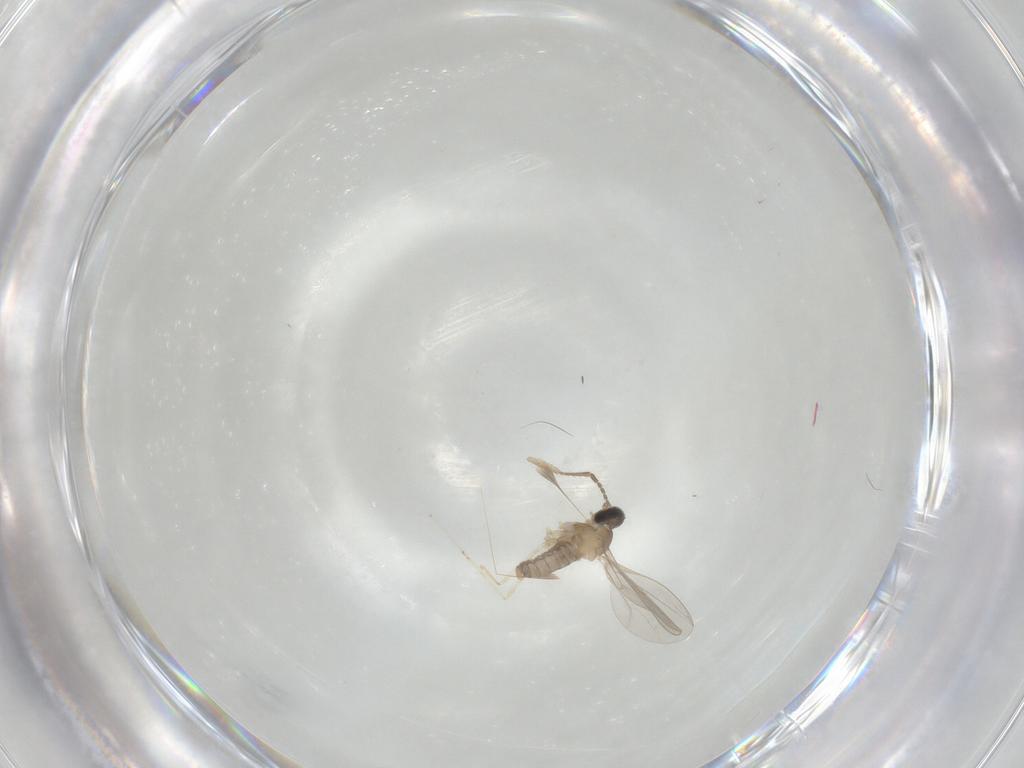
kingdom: Animalia
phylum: Arthropoda
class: Insecta
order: Diptera
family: Cecidomyiidae
